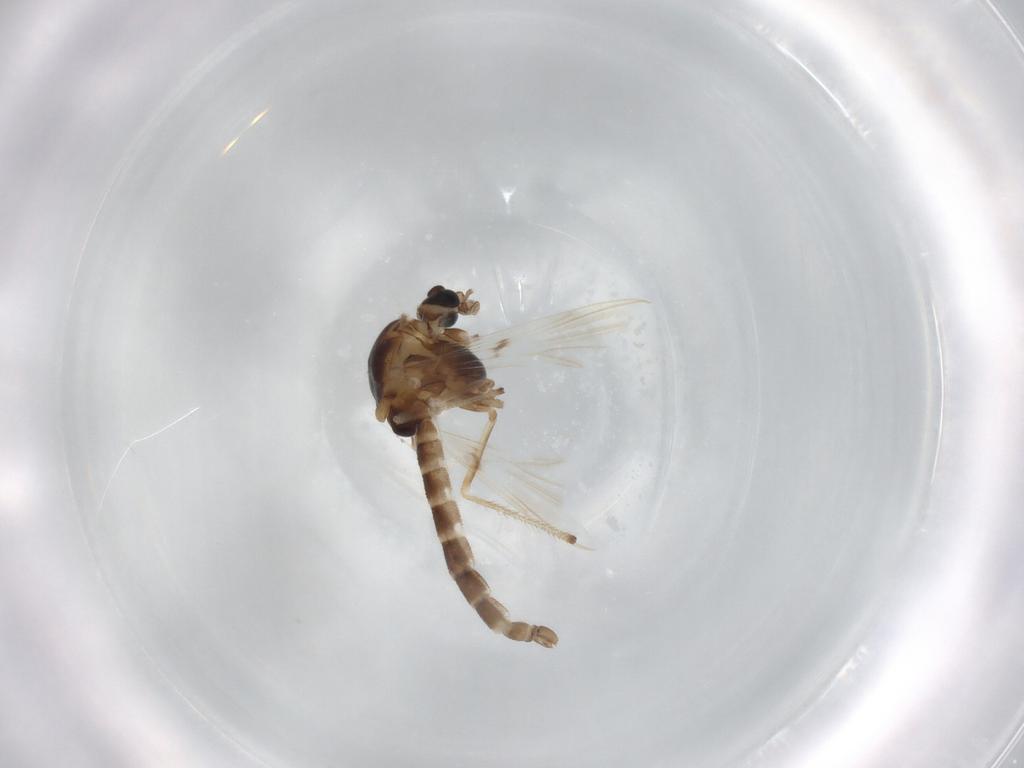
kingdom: Animalia
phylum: Arthropoda
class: Insecta
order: Diptera
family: Chironomidae
